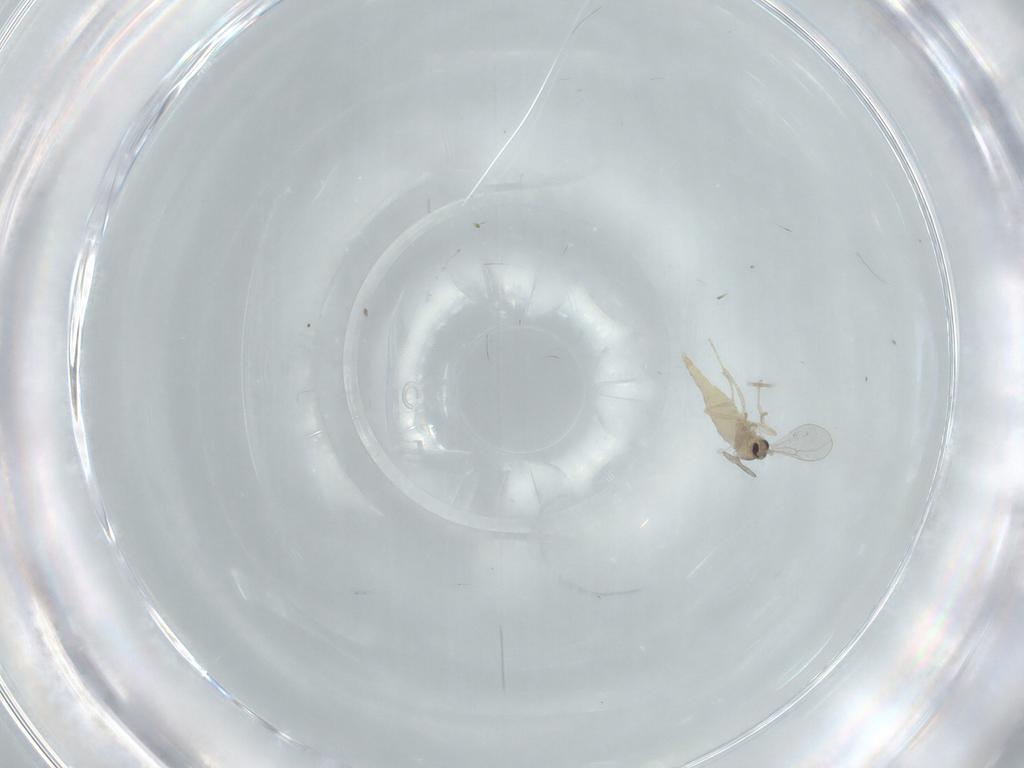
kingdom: Animalia
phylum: Arthropoda
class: Insecta
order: Diptera
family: Cecidomyiidae
